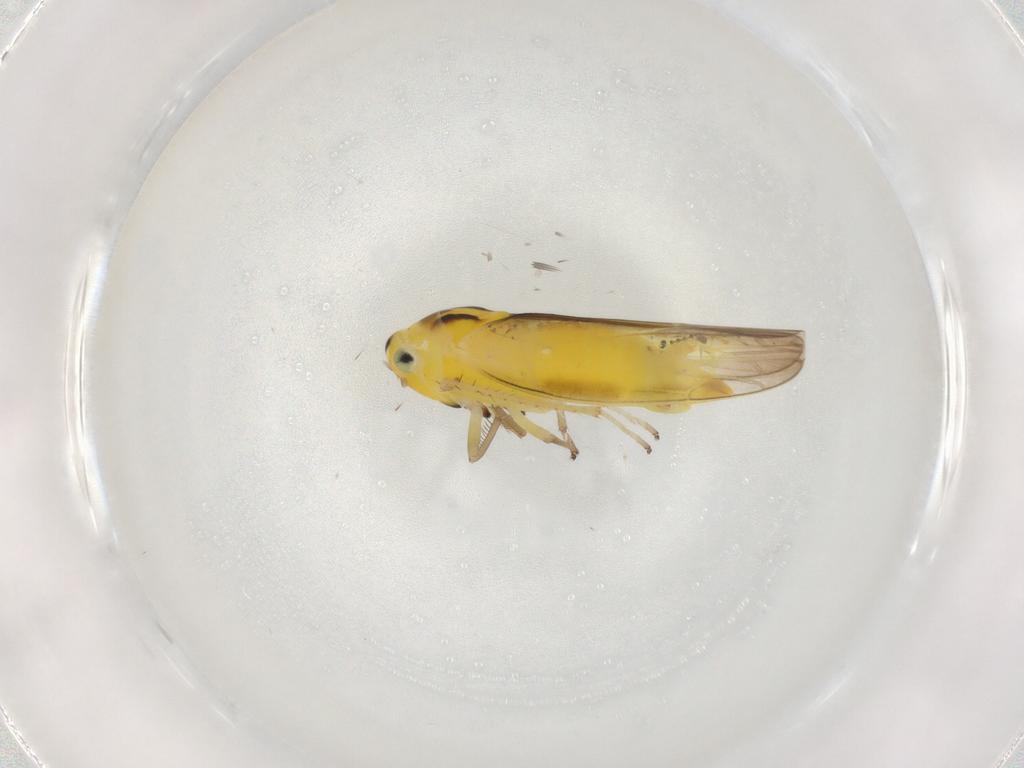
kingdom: Animalia
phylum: Arthropoda
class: Insecta
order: Hemiptera
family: Cicadellidae
